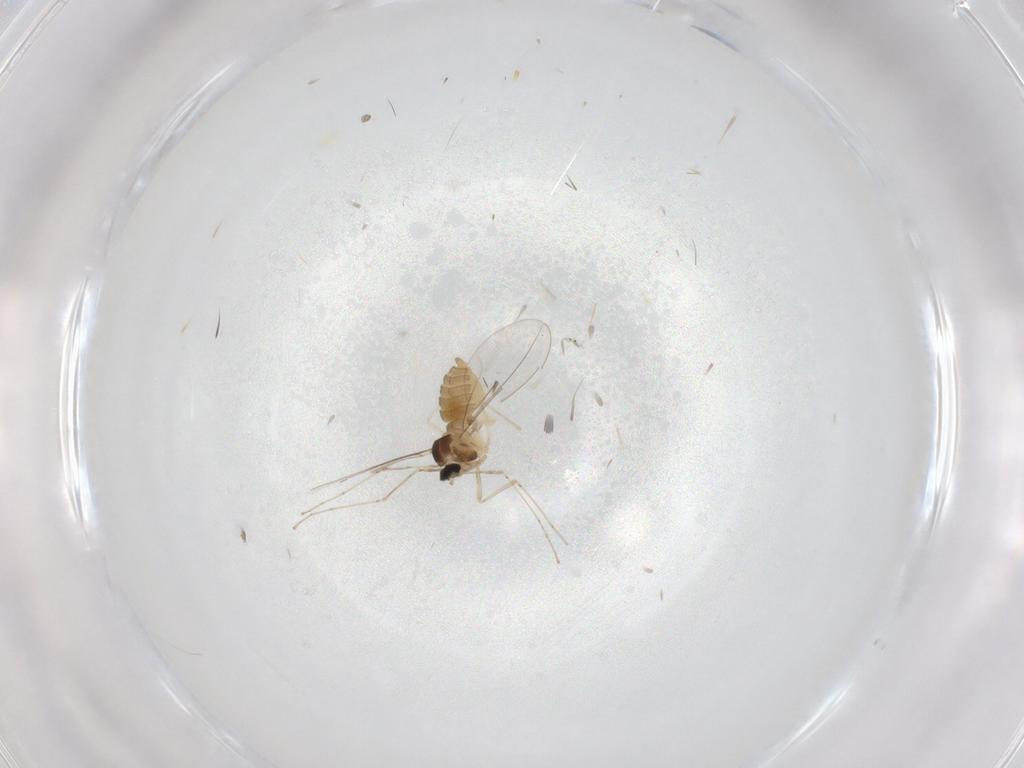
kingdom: Animalia
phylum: Arthropoda
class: Insecta
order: Diptera
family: Cecidomyiidae
